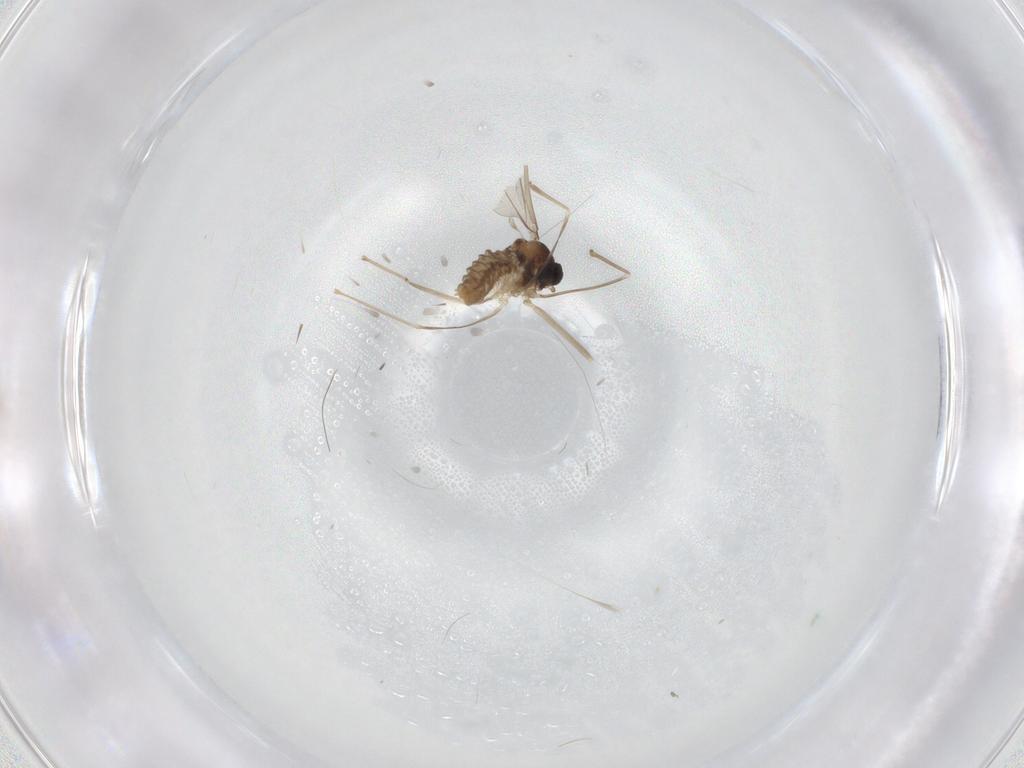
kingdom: Animalia
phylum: Arthropoda
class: Insecta
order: Diptera
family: Cecidomyiidae
